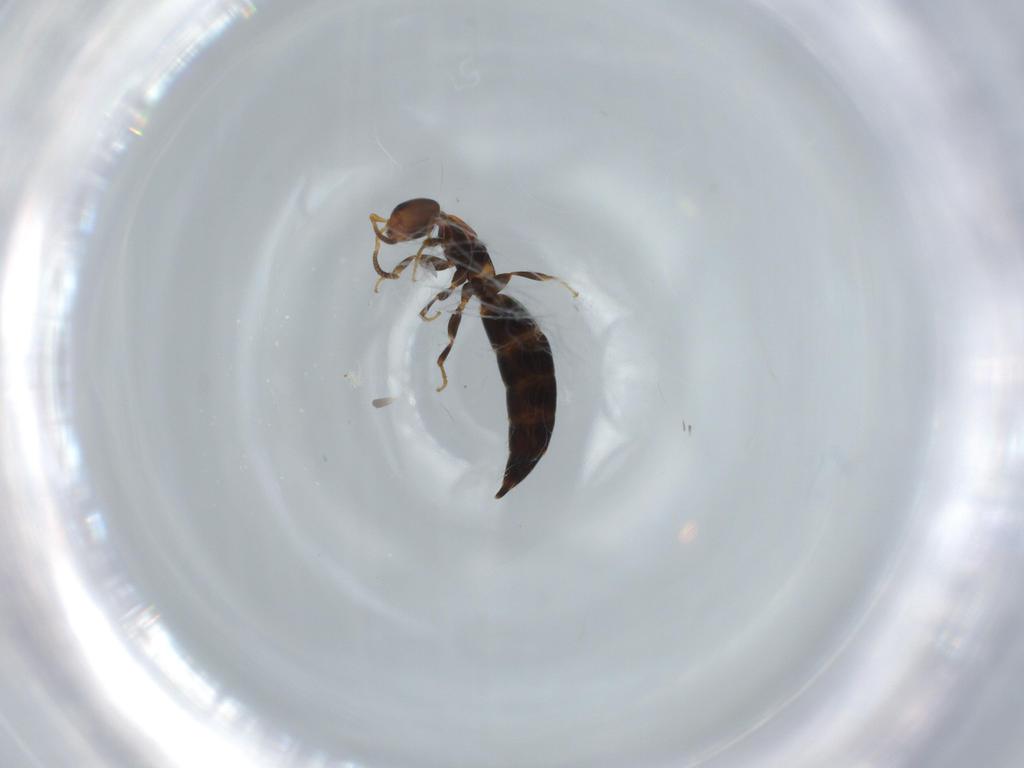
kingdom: Animalia
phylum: Arthropoda
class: Insecta
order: Hymenoptera
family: Bethylidae
